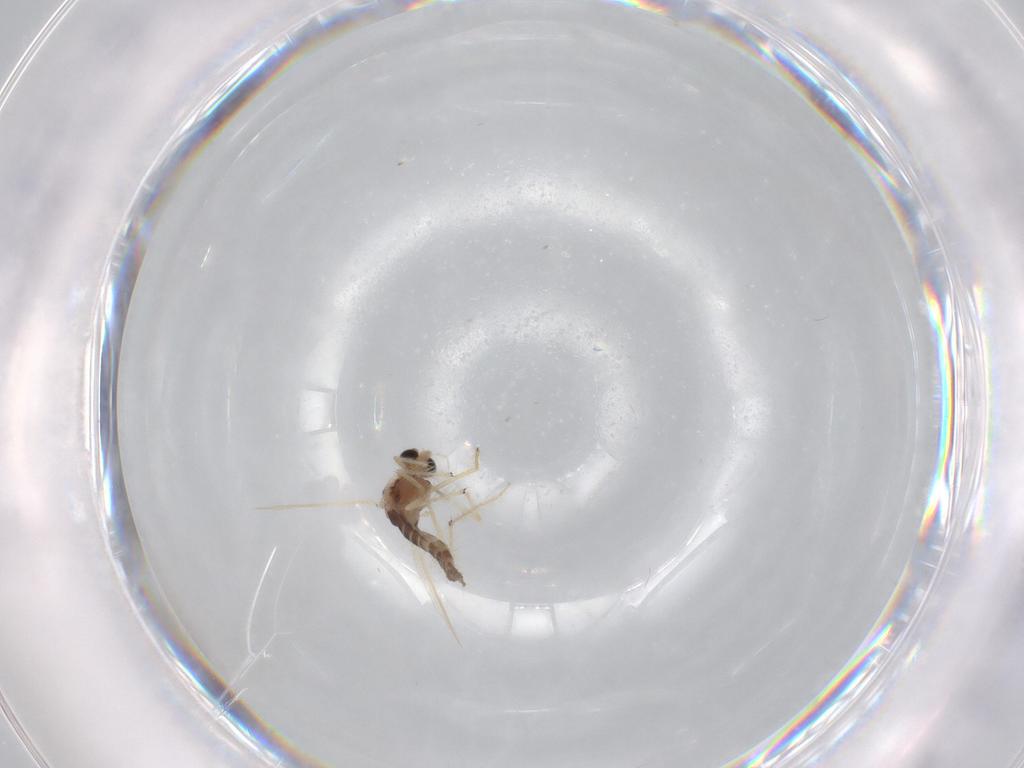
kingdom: Animalia
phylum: Arthropoda
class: Insecta
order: Diptera
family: Chironomidae
